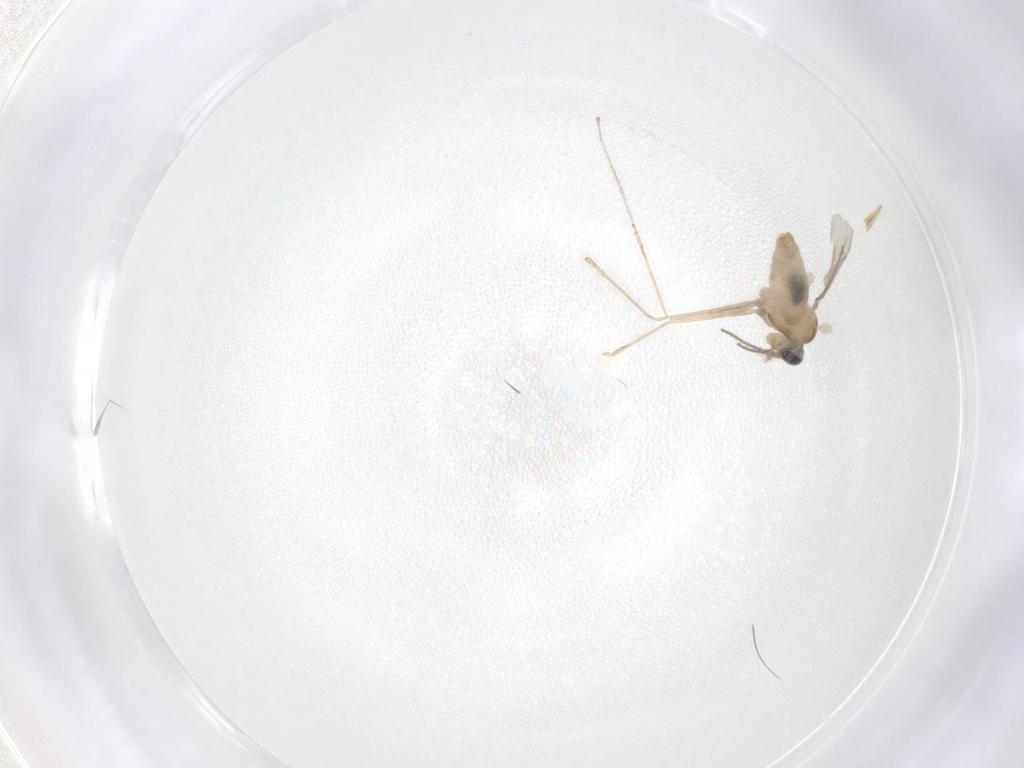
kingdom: Animalia
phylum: Arthropoda
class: Insecta
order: Diptera
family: Cecidomyiidae
